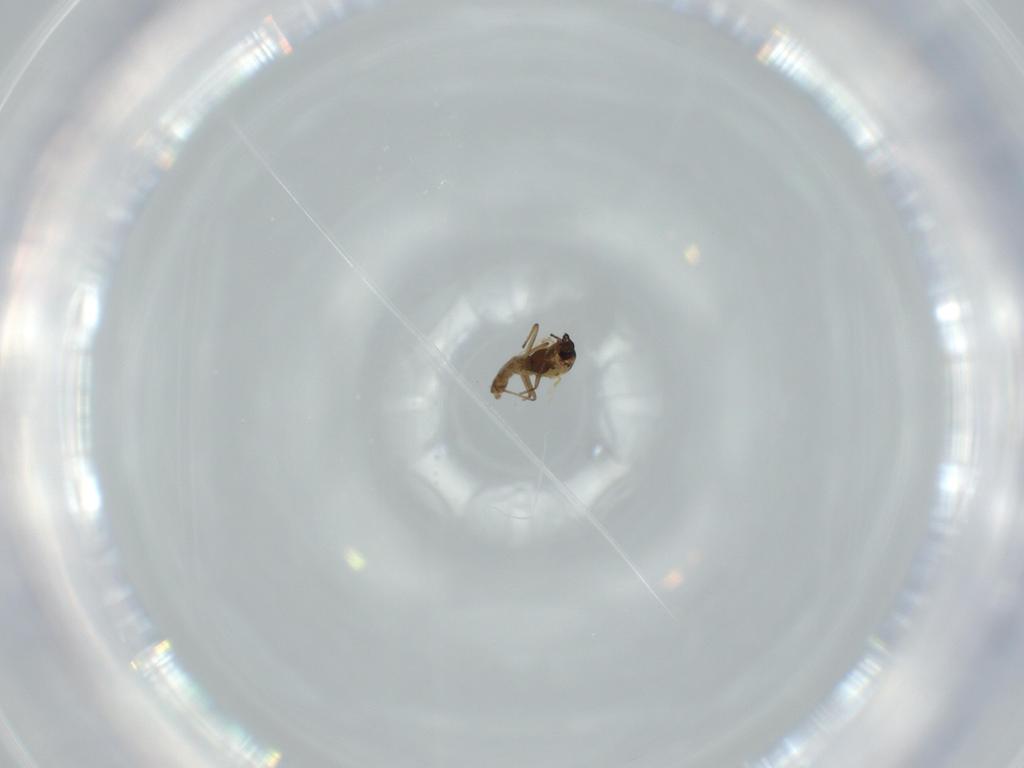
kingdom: Animalia
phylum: Arthropoda
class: Insecta
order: Diptera
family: Chironomidae
